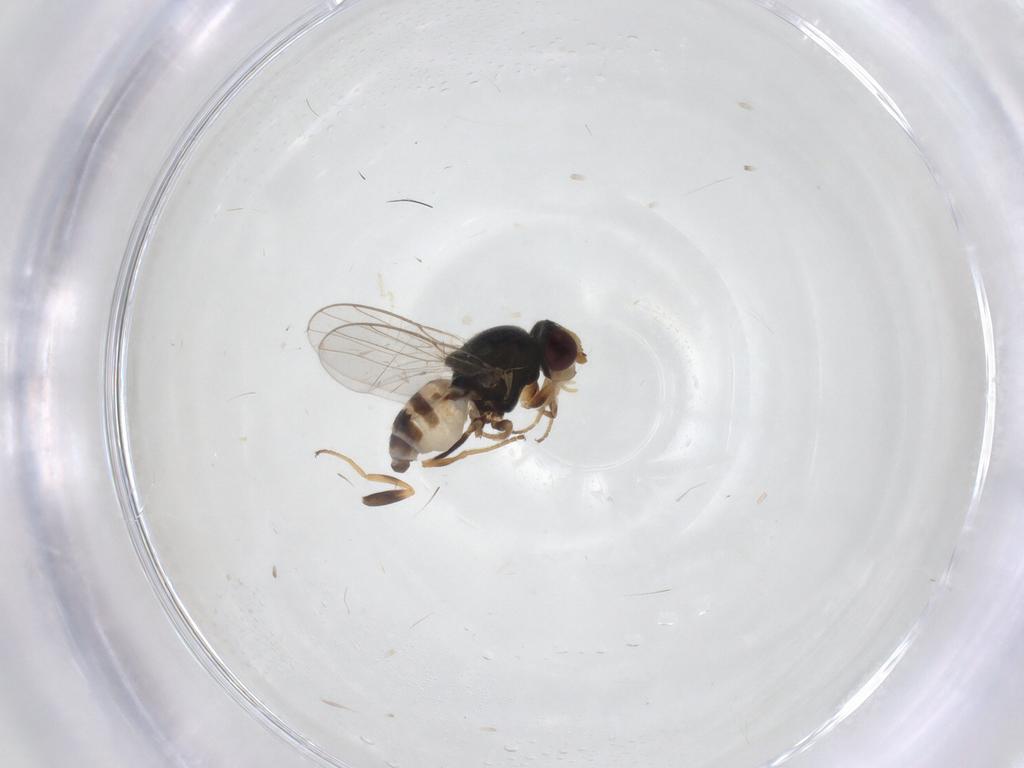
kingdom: Animalia
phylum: Arthropoda
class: Insecta
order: Diptera
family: Chloropidae
